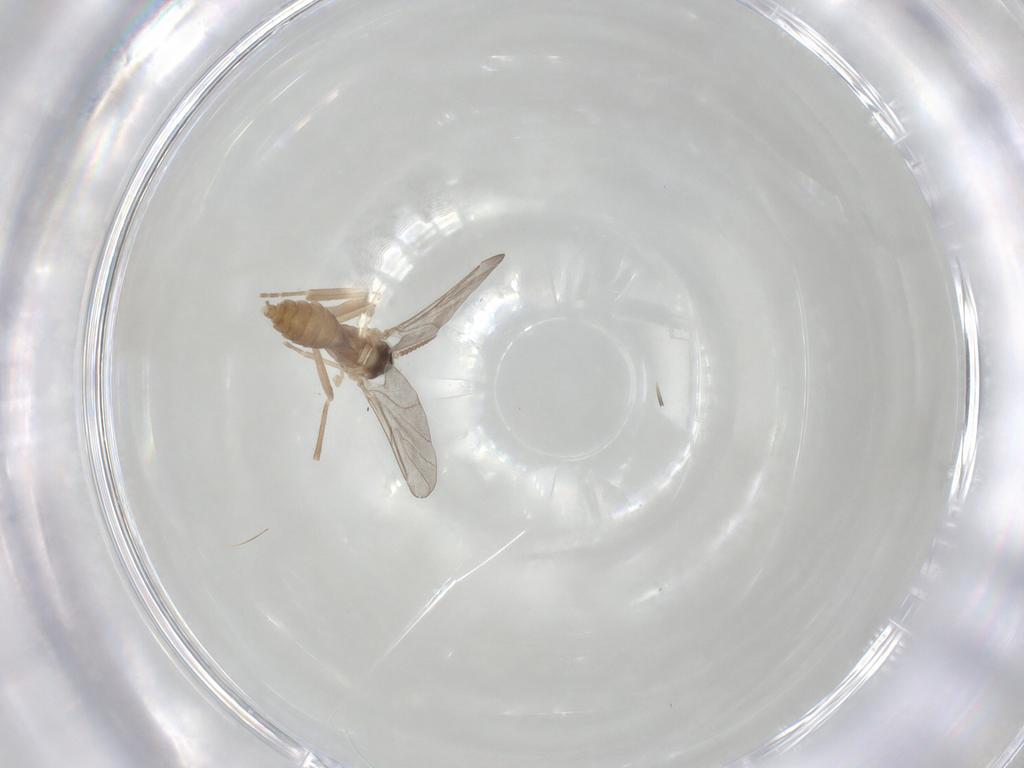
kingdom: Animalia
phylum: Arthropoda
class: Insecta
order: Diptera
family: Cecidomyiidae
